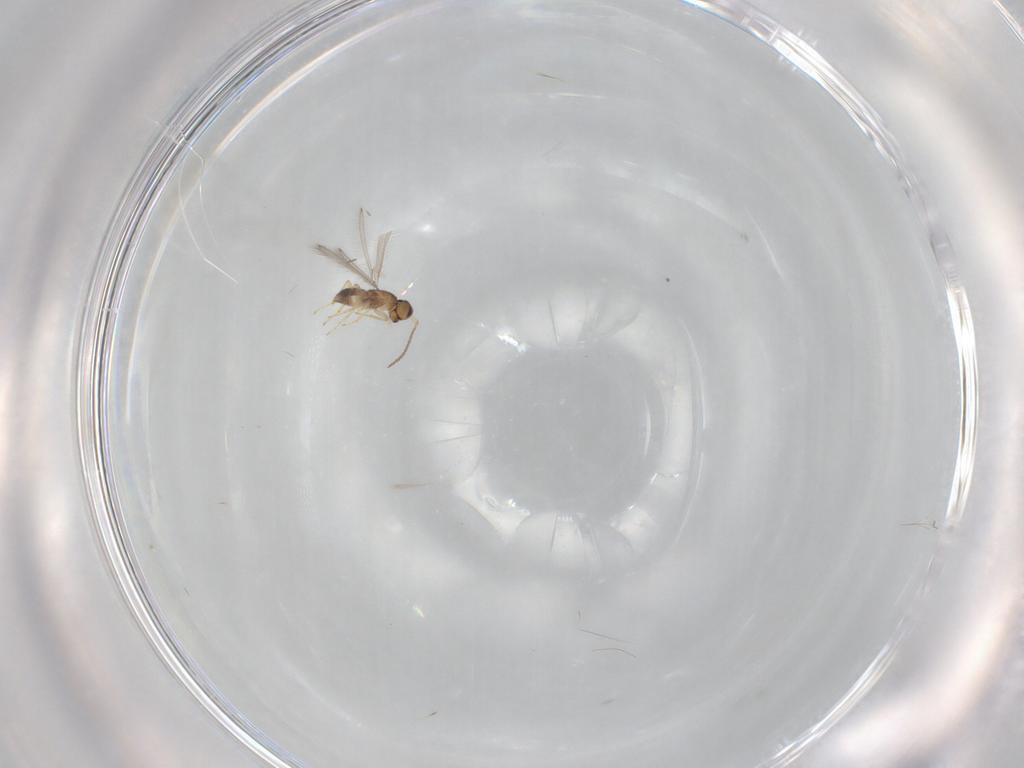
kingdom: Animalia
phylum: Arthropoda
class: Insecta
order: Hymenoptera
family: Mymaridae
